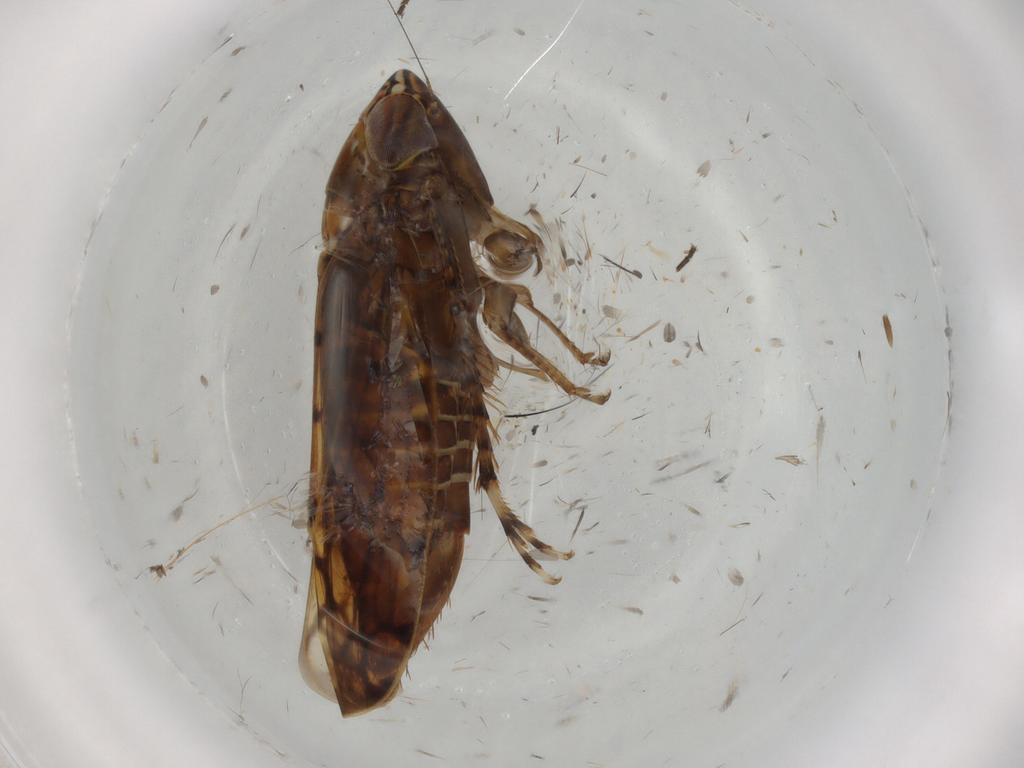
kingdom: Animalia
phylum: Arthropoda
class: Insecta
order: Hemiptera
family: Cicadellidae
